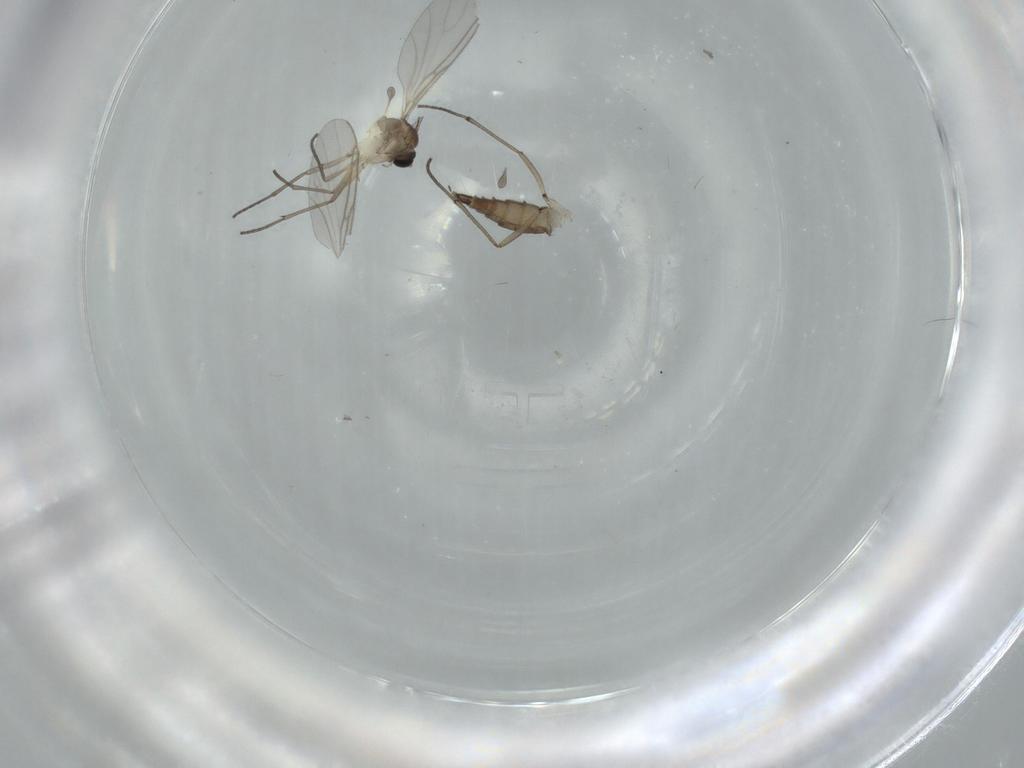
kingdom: Animalia
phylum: Arthropoda
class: Insecta
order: Diptera
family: Sciaridae
